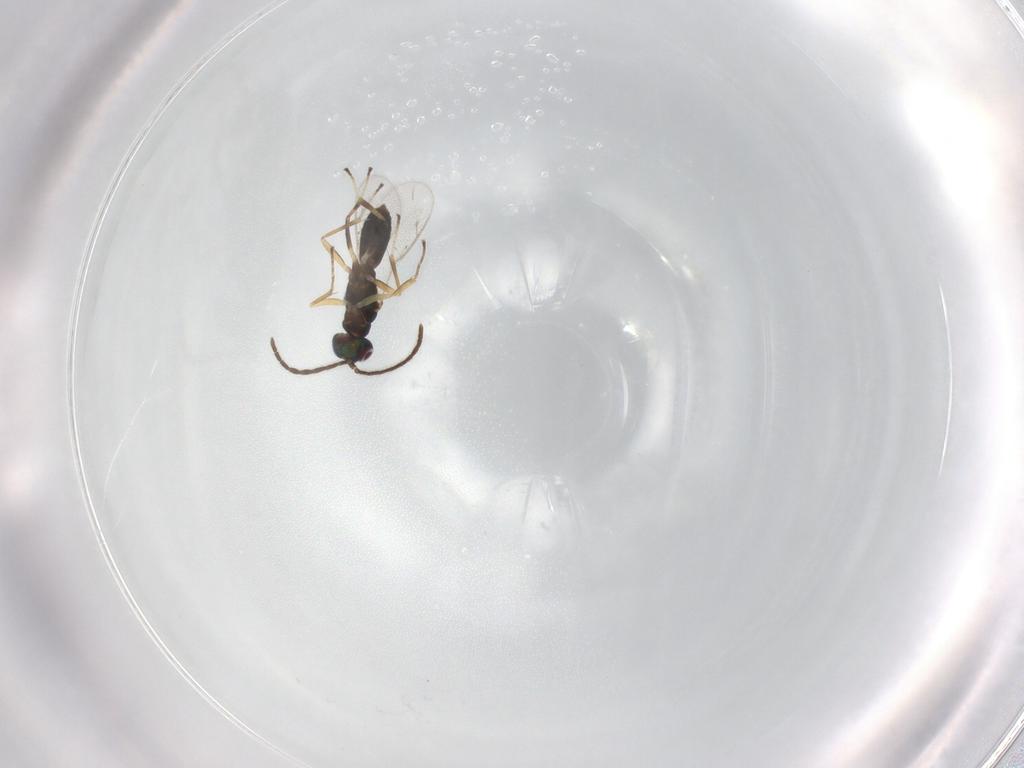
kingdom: Animalia
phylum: Arthropoda
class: Insecta
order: Hymenoptera
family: Eupelmidae
